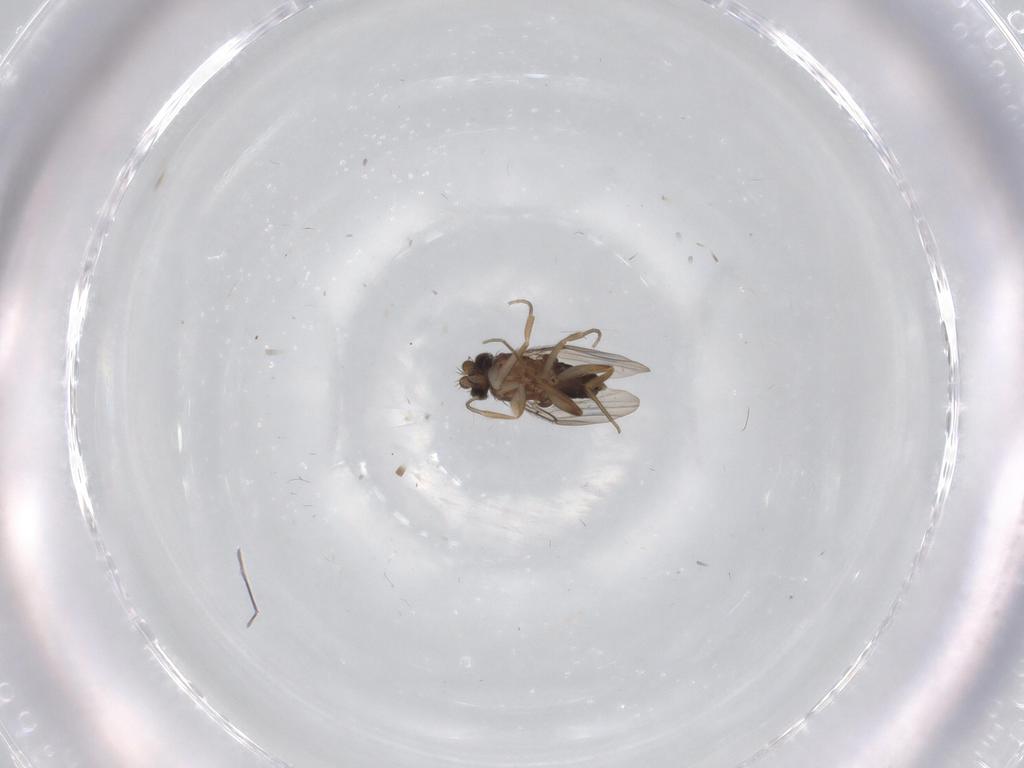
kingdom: Animalia
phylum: Arthropoda
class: Insecta
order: Diptera
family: Phoridae
